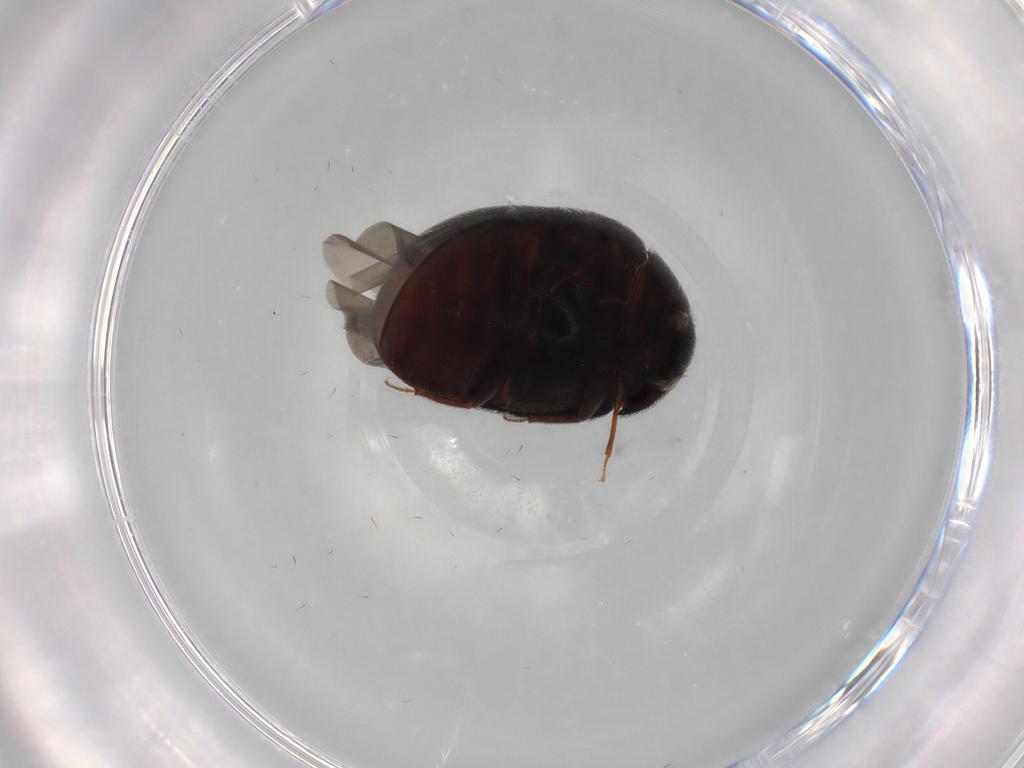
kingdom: Animalia
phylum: Arthropoda
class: Insecta
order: Coleoptera
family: Dermestidae
